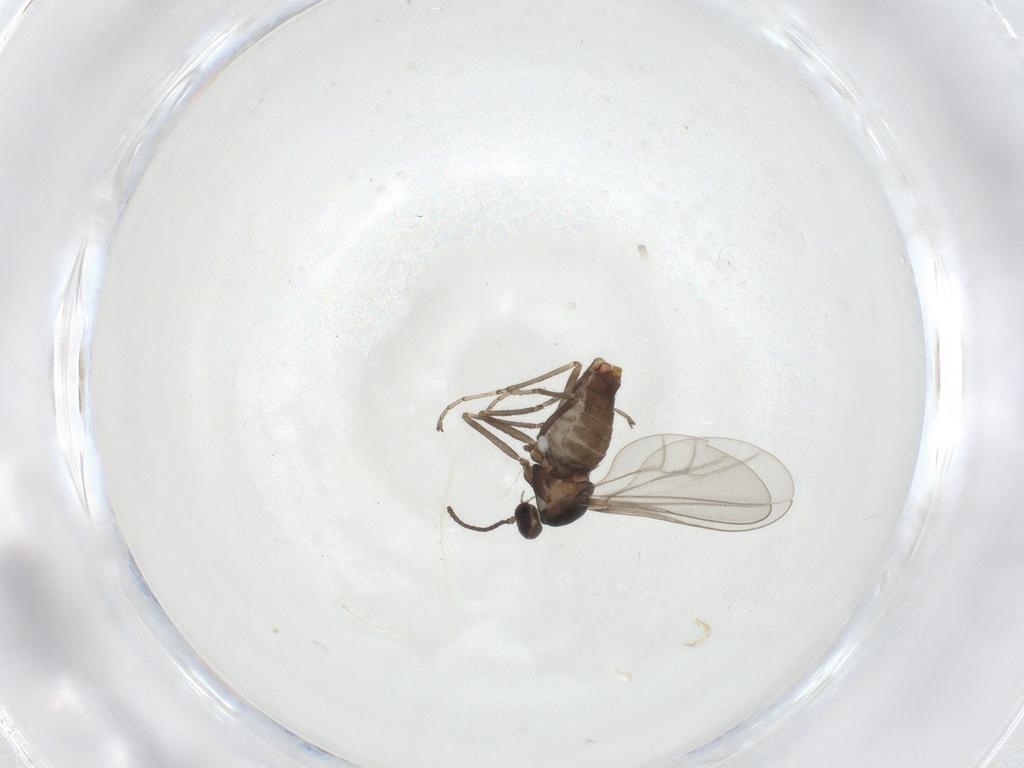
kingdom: Animalia
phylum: Arthropoda
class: Insecta
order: Diptera
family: Cecidomyiidae
